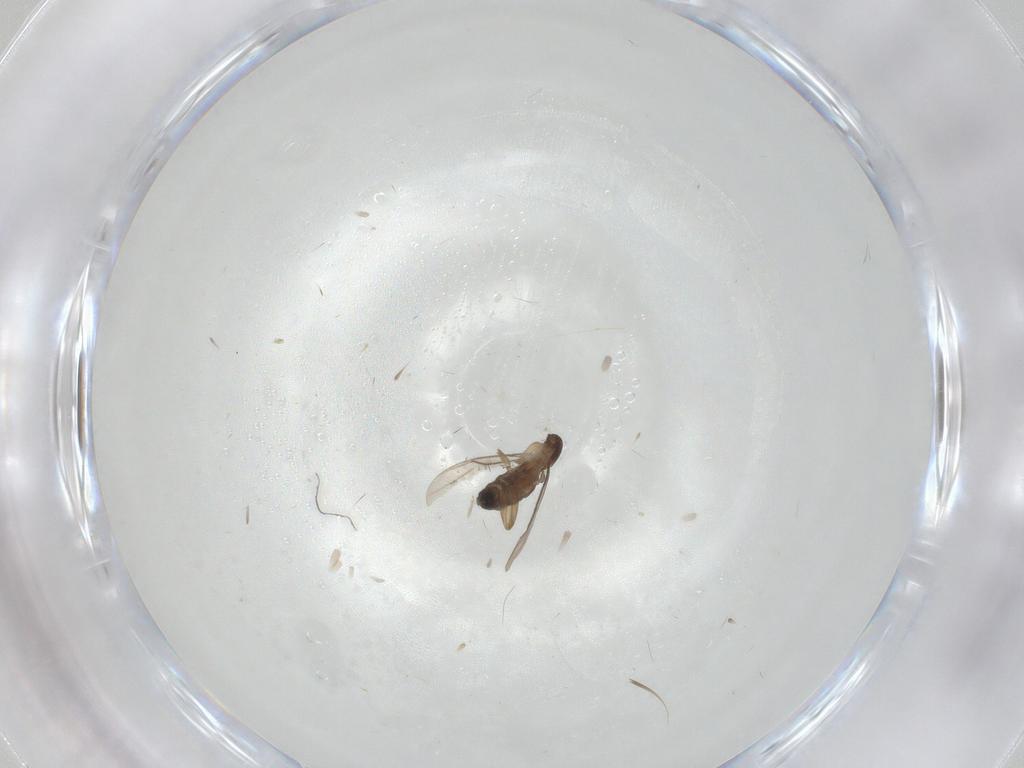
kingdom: Animalia
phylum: Arthropoda
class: Insecta
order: Diptera
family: Phoridae
